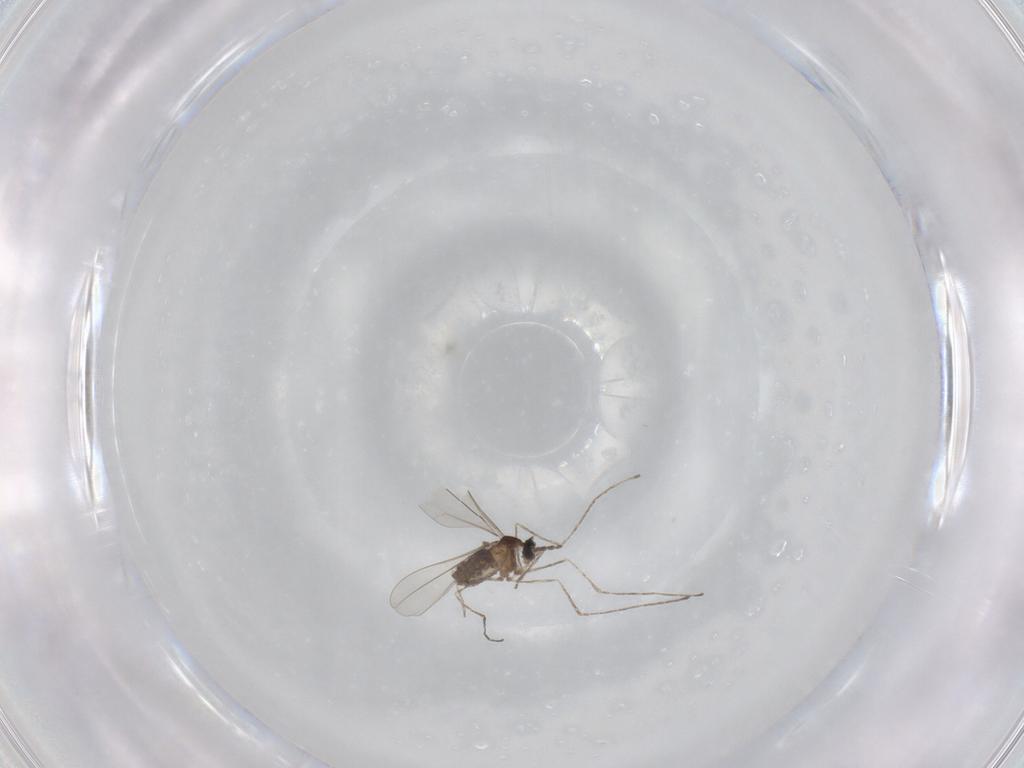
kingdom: Animalia
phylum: Arthropoda
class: Insecta
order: Diptera
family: Cecidomyiidae
